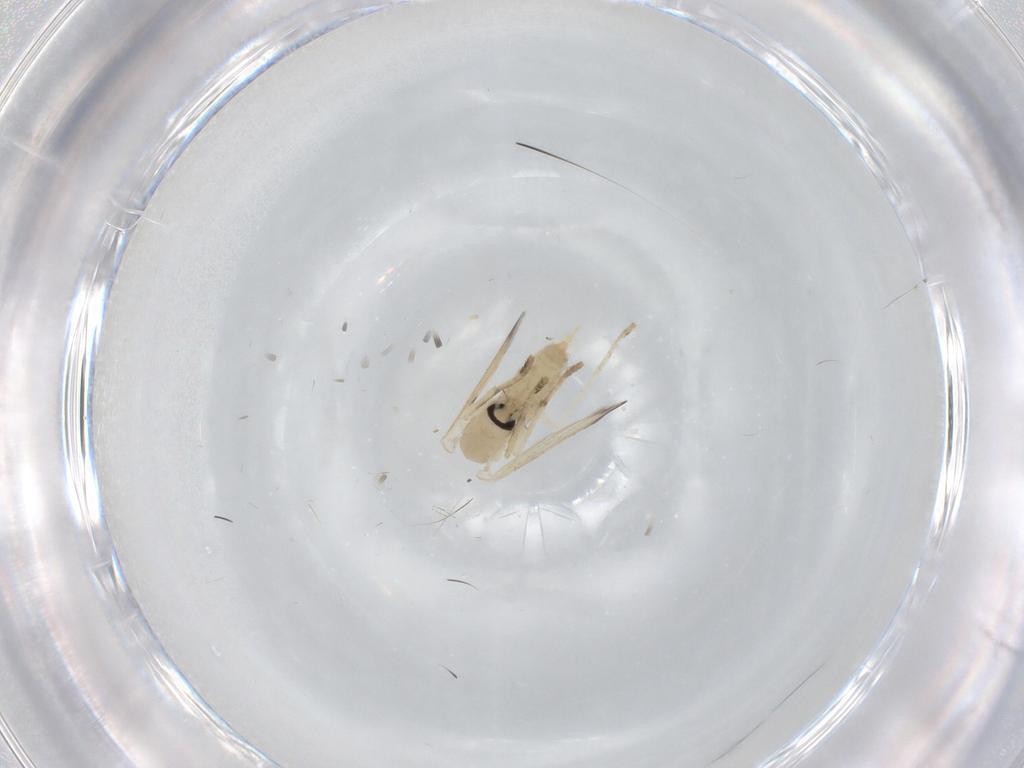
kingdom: Animalia
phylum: Arthropoda
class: Insecta
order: Diptera
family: Psychodidae
